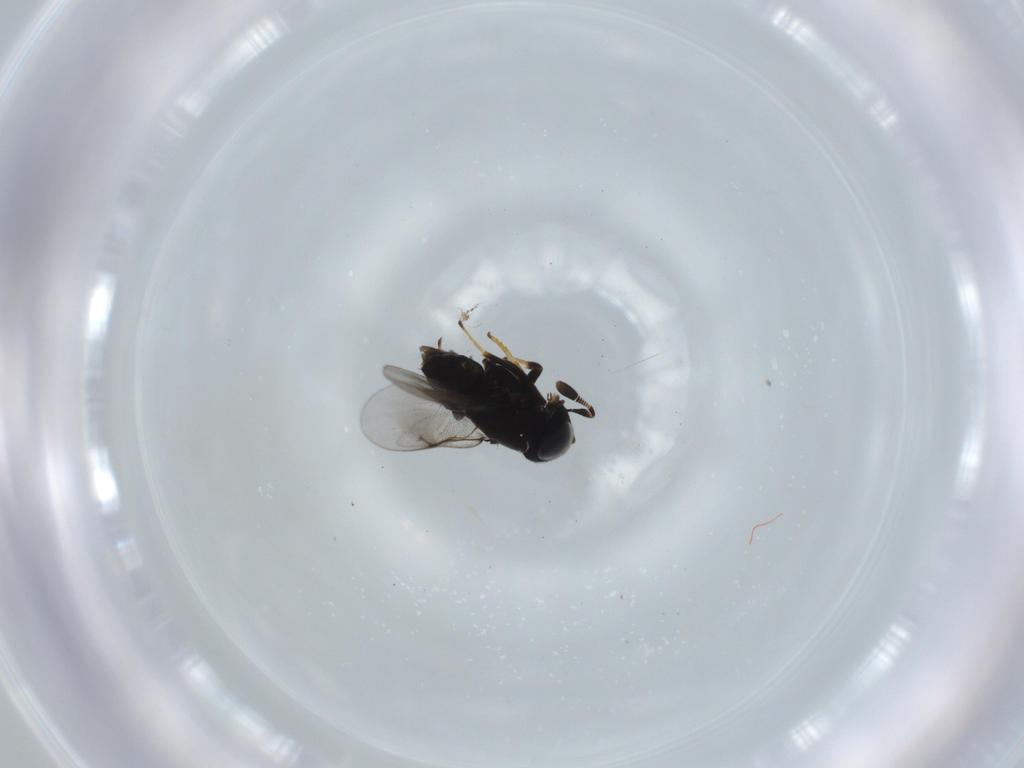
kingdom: Animalia
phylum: Arthropoda
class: Insecta
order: Hymenoptera
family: Encyrtidae
